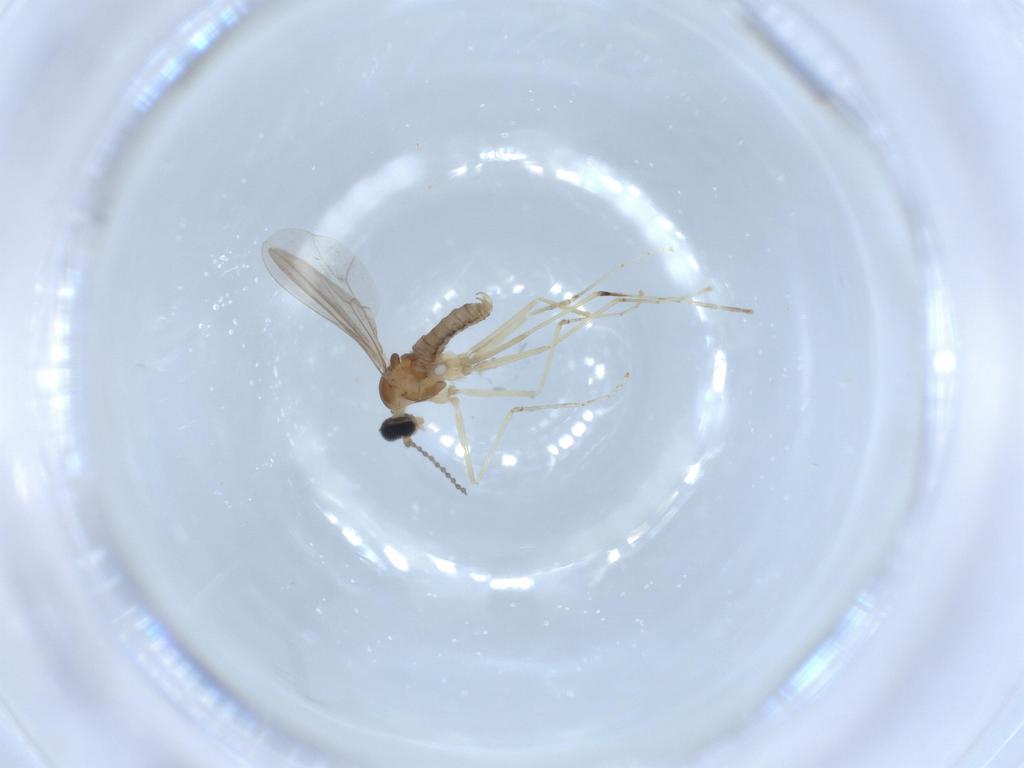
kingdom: Animalia
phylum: Arthropoda
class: Insecta
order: Diptera
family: Cecidomyiidae
